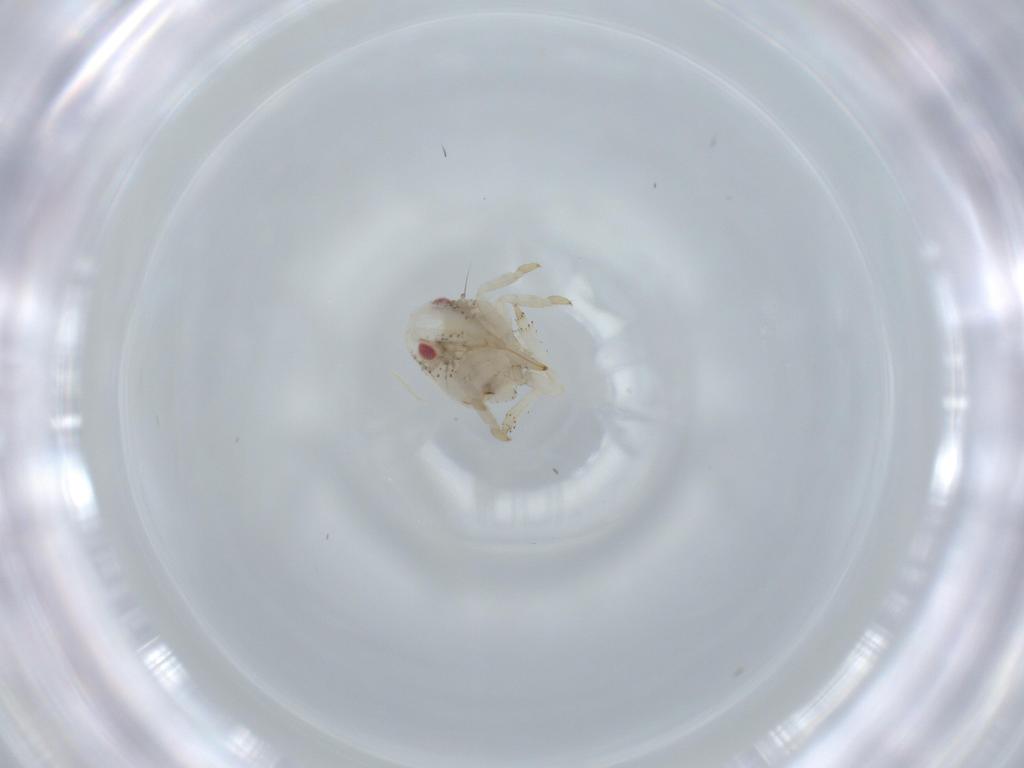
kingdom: Animalia
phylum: Arthropoda
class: Insecta
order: Hemiptera
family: Acanaloniidae
